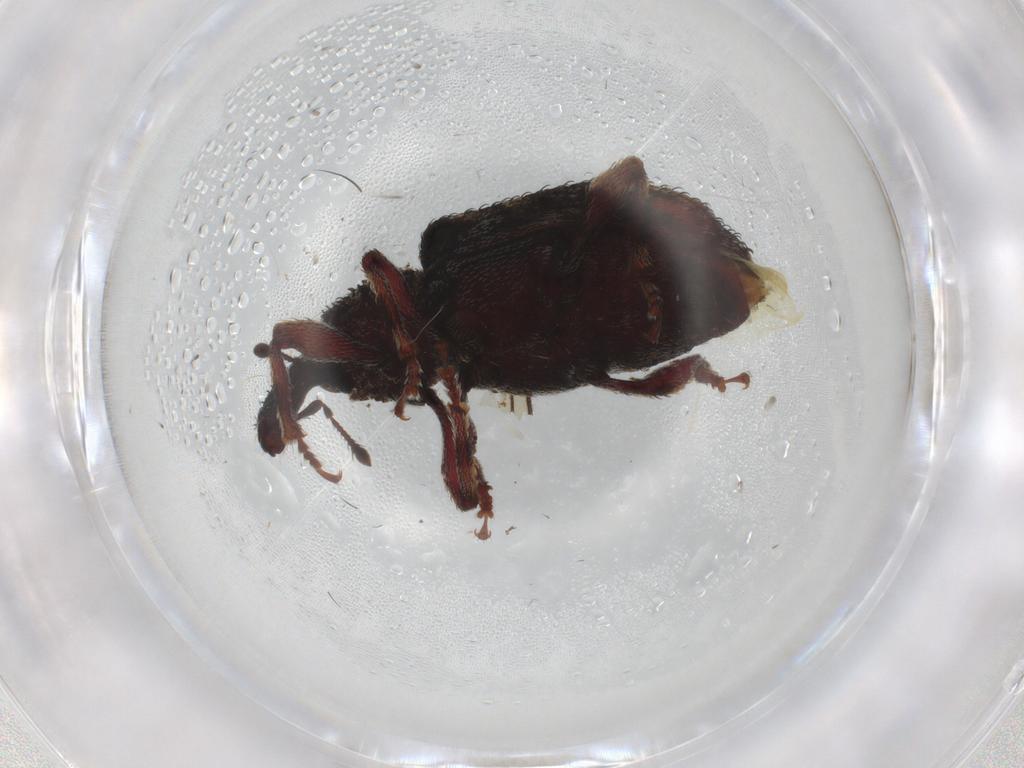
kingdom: Animalia
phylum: Arthropoda
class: Insecta
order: Coleoptera
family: Curculionidae
